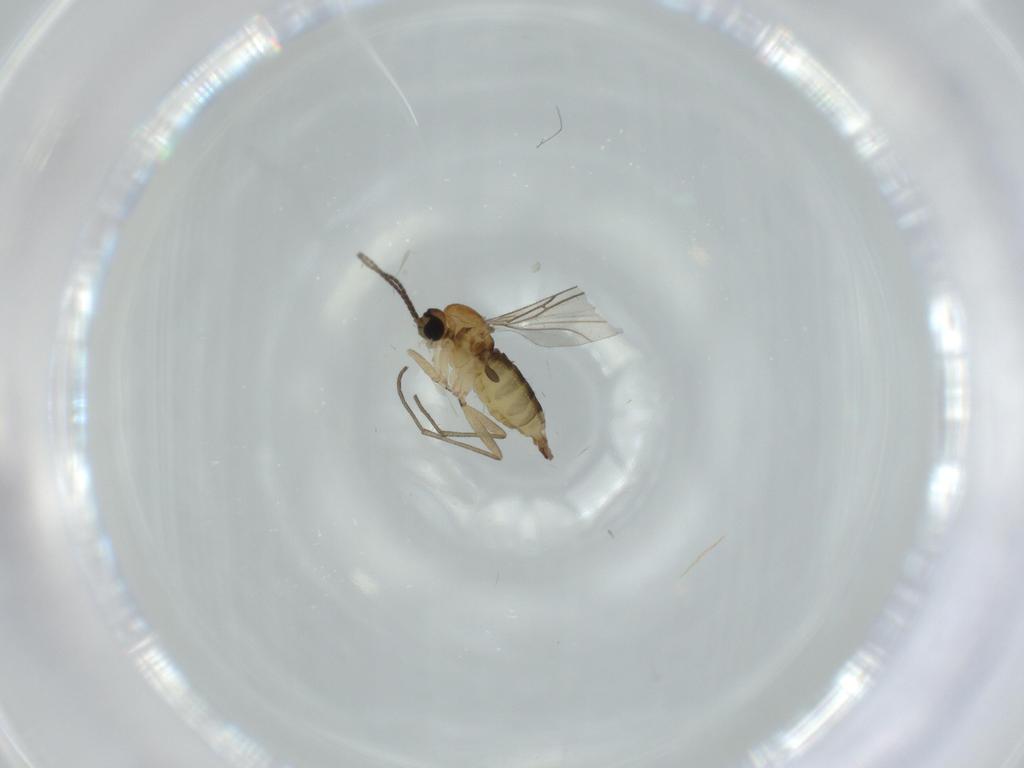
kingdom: Animalia
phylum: Arthropoda
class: Insecta
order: Diptera
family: Sciaridae
